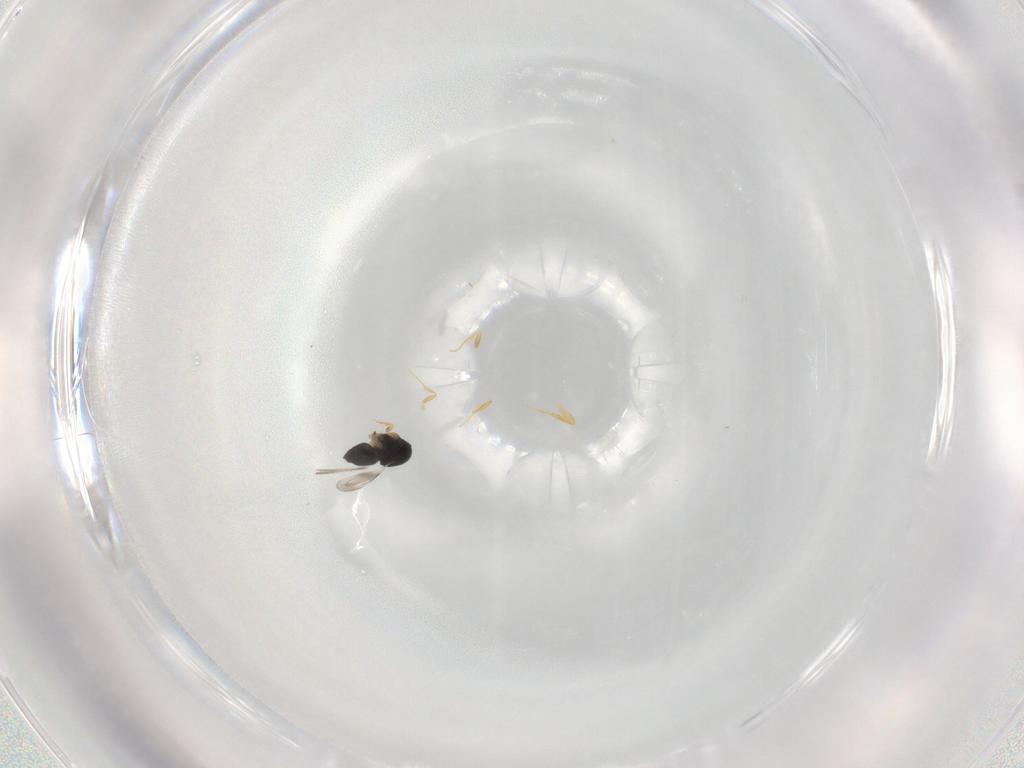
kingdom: Animalia
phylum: Arthropoda
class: Insecta
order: Hymenoptera
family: Ceraphronidae
